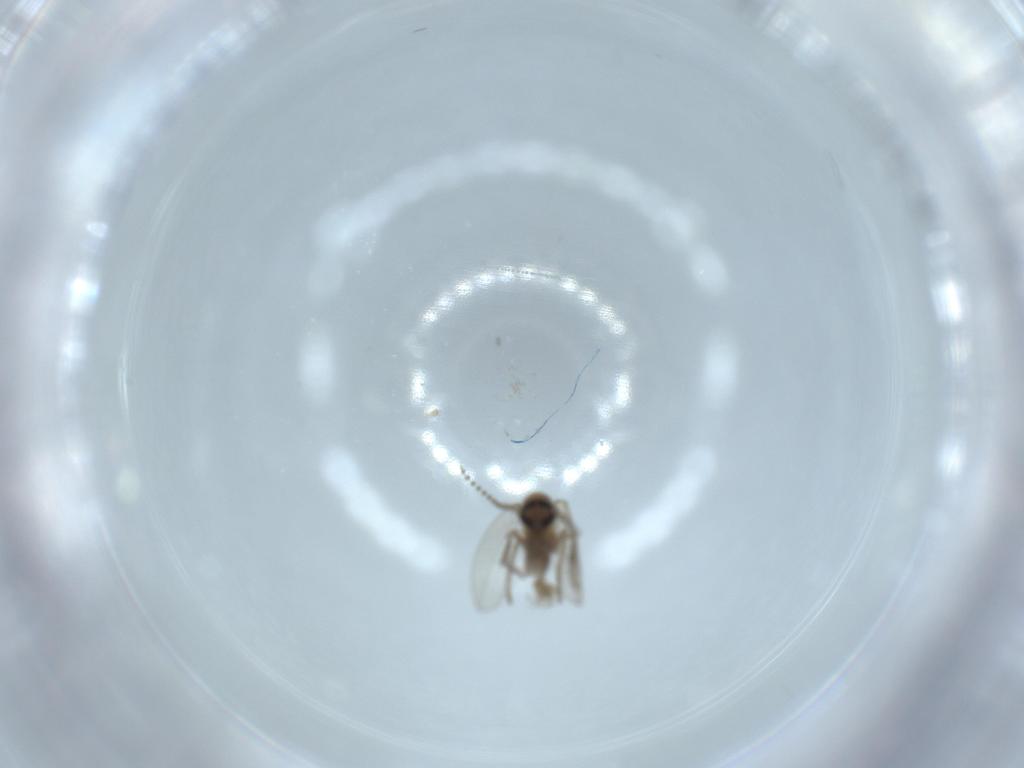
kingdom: Animalia
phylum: Arthropoda
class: Insecta
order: Diptera
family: Psychodidae
